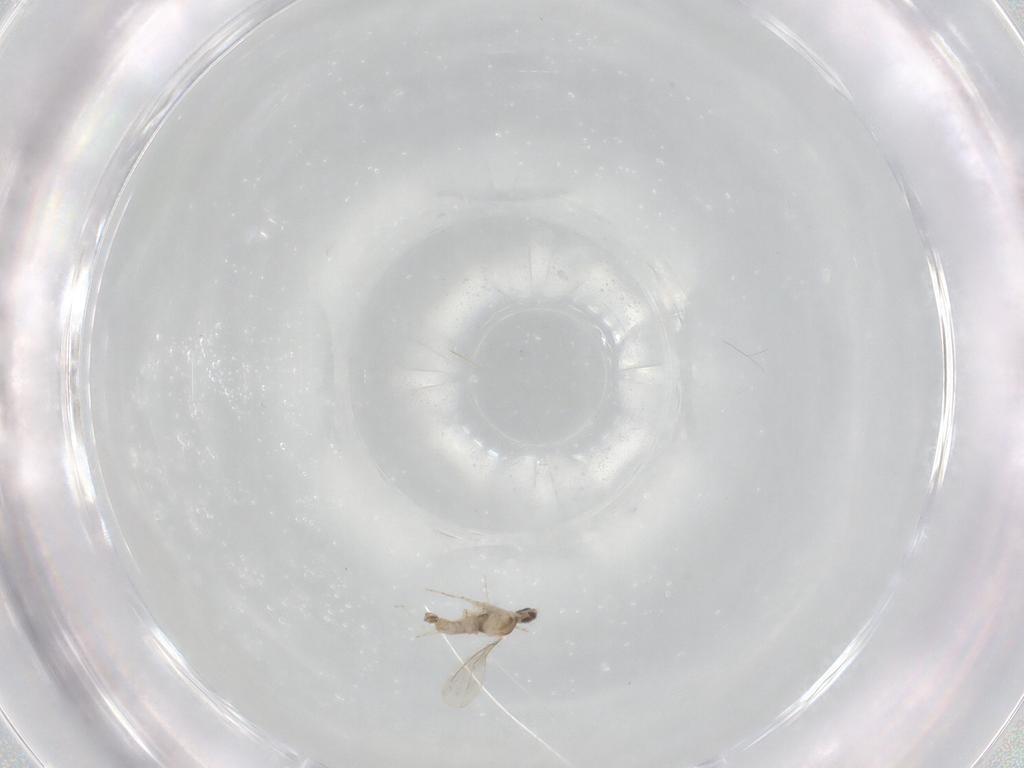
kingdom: Animalia
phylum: Arthropoda
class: Insecta
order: Diptera
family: Cecidomyiidae
